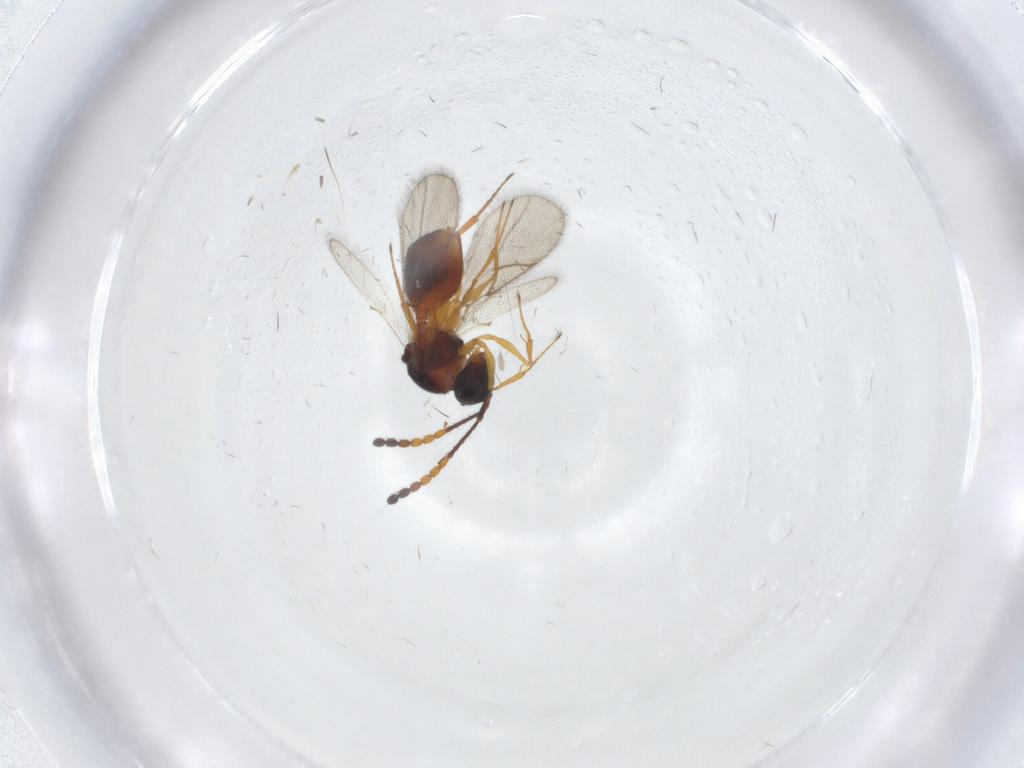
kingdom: Animalia
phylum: Arthropoda
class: Insecta
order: Hymenoptera
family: Figitidae
